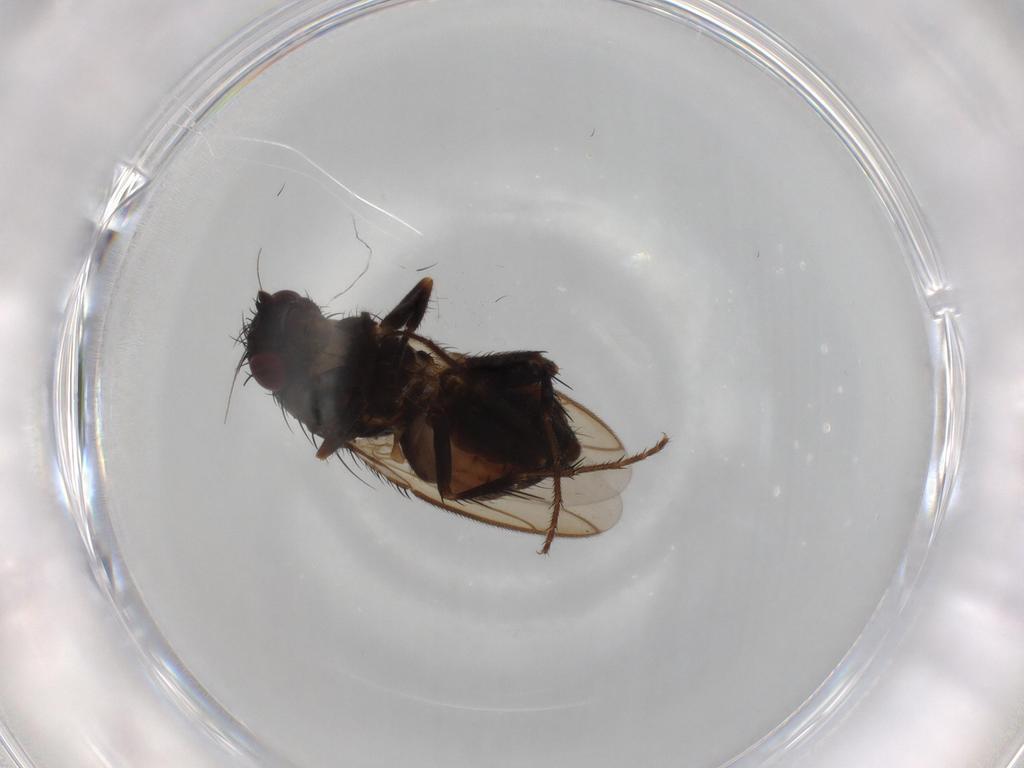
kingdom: Animalia
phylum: Arthropoda
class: Insecta
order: Diptera
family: Sphaeroceridae
